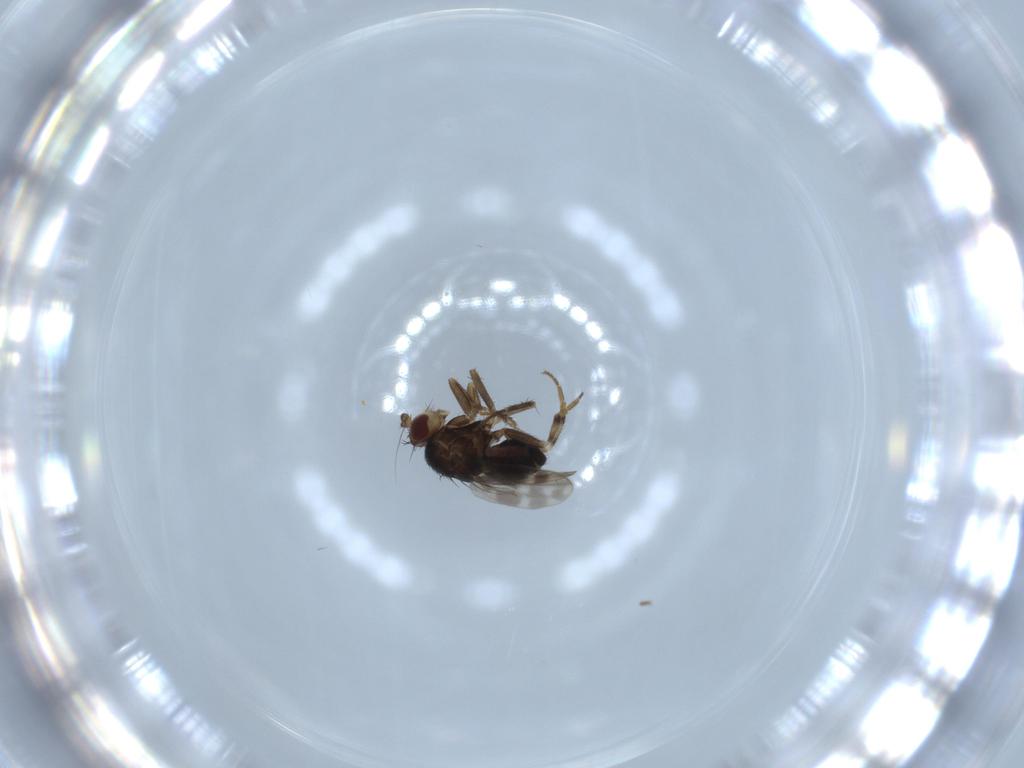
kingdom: Animalia
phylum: Arthropoda
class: Insecta
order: Diptera
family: Sphaeroceridae
